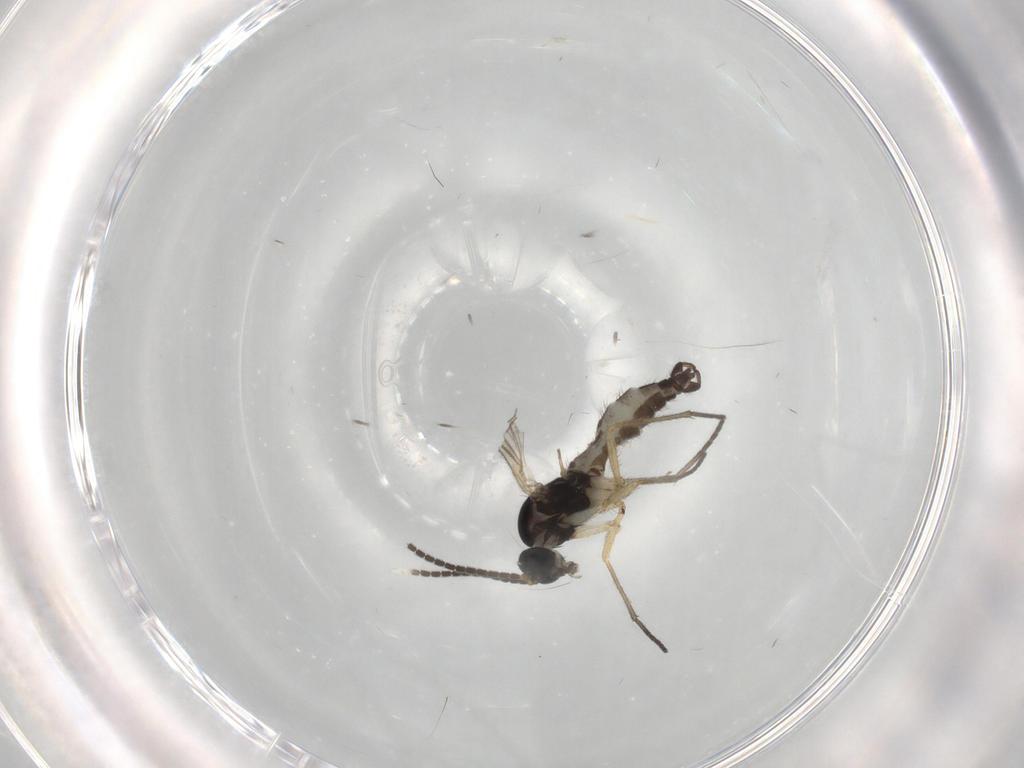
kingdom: Animalia
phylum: Arthropoda
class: Insecta
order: Diptera
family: Sciaridae
